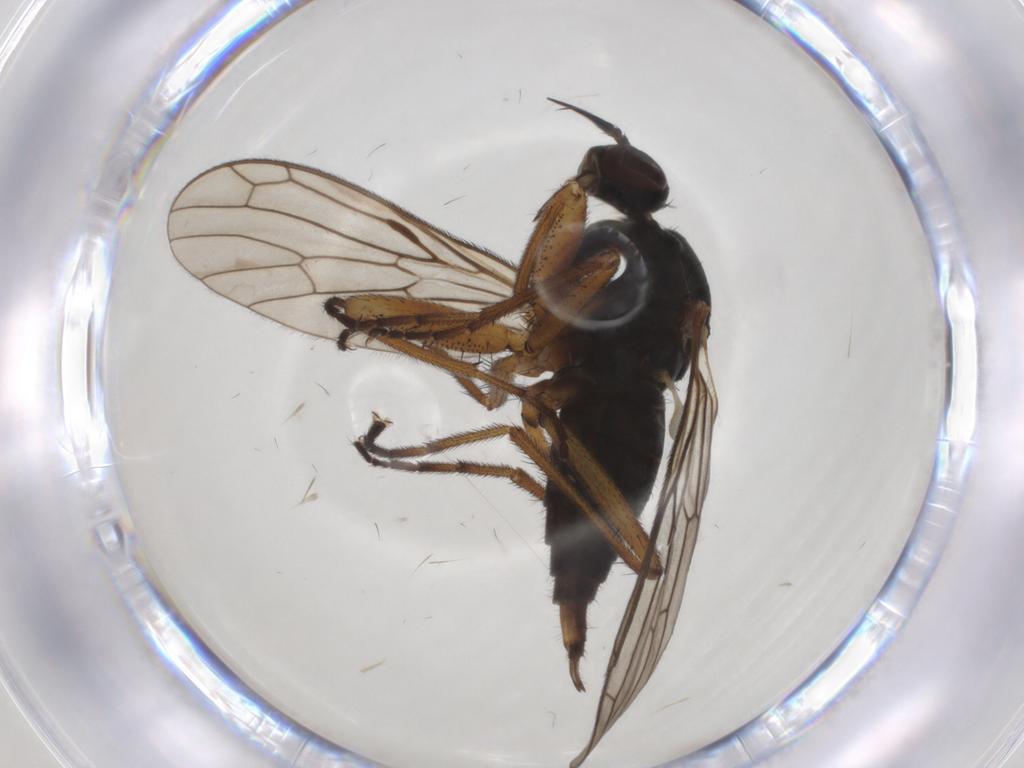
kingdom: Animalia
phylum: Arthropoda
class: Insecta
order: Diptera
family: Empididae
